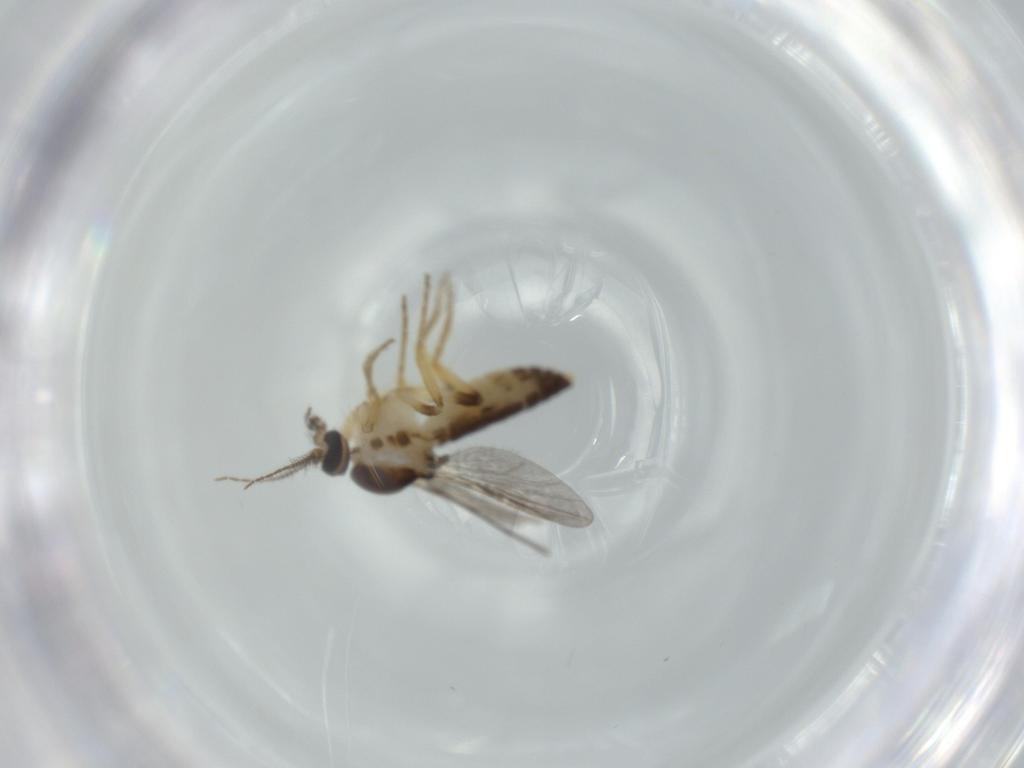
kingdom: Animalia
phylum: Arthropoda
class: Insecta
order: Diptera
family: Ceratopogonidae
